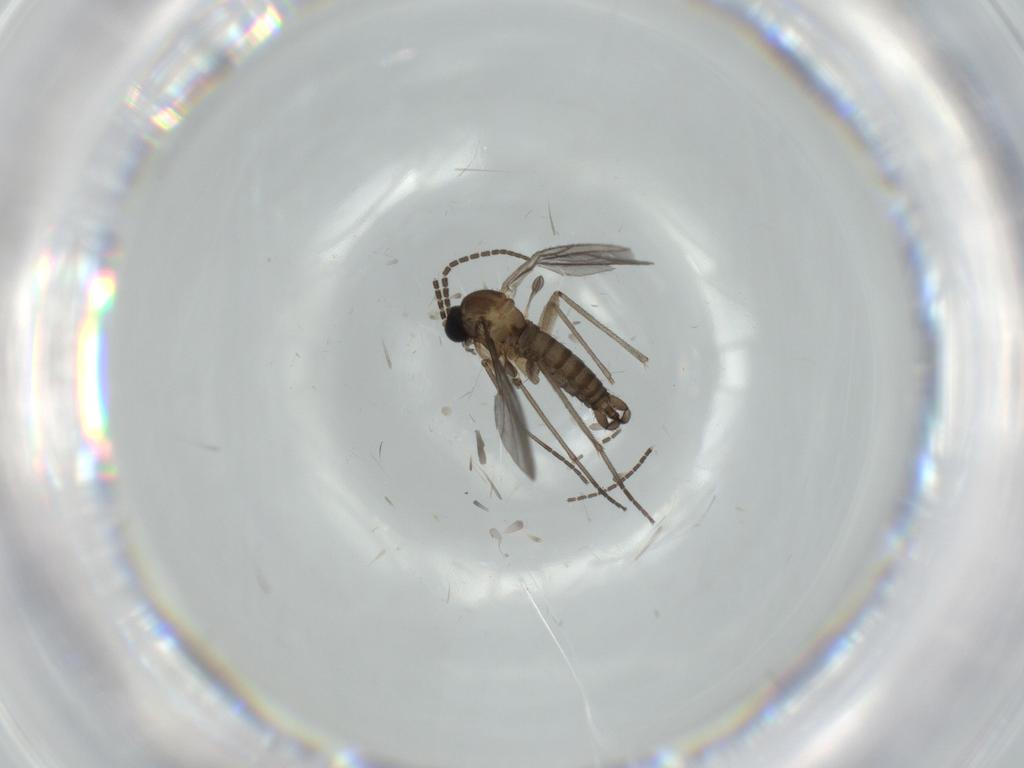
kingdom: Animalia
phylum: Arthropoda
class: Insecta
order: Diptera
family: Sciaridae
